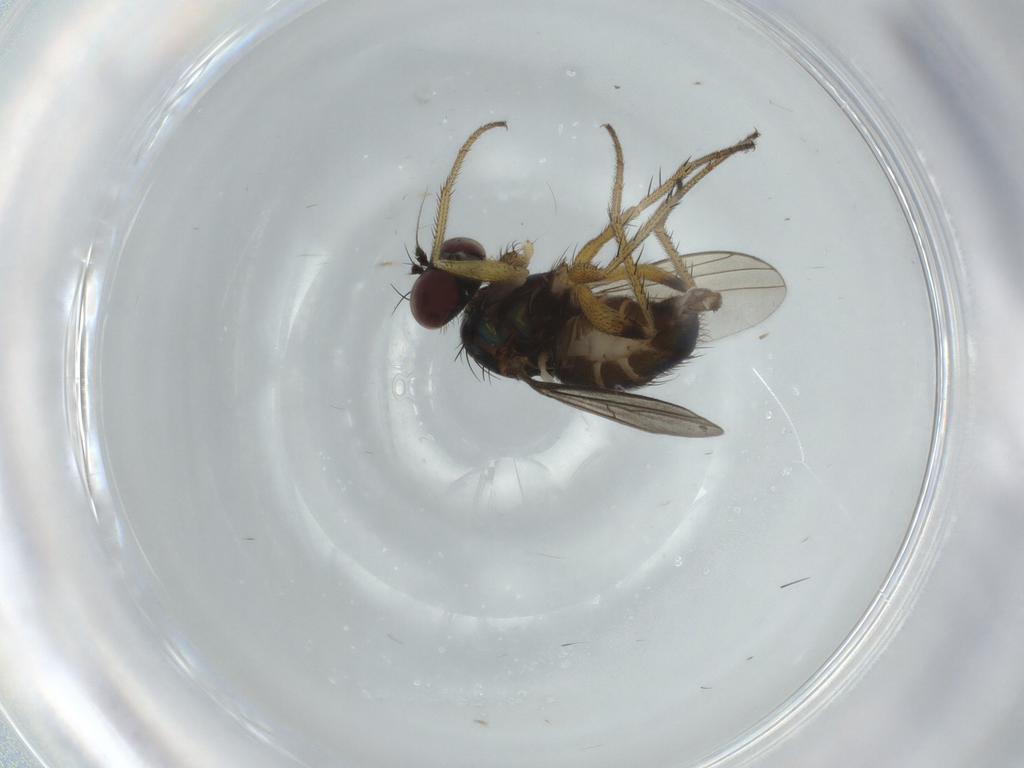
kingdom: Animalia
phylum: Arthropoda
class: Insecta
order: Diptera
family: Dolichopodidae
